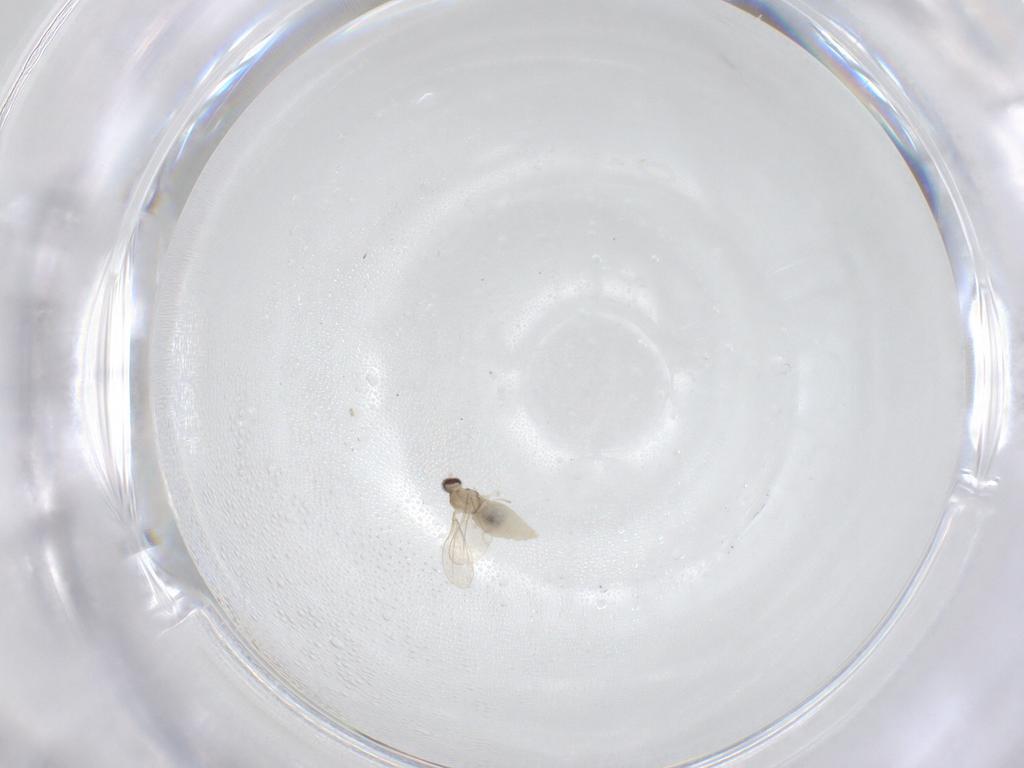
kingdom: Animalia
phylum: Arthropoda
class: Insecta
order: Diptera
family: Cecidomyiidae
